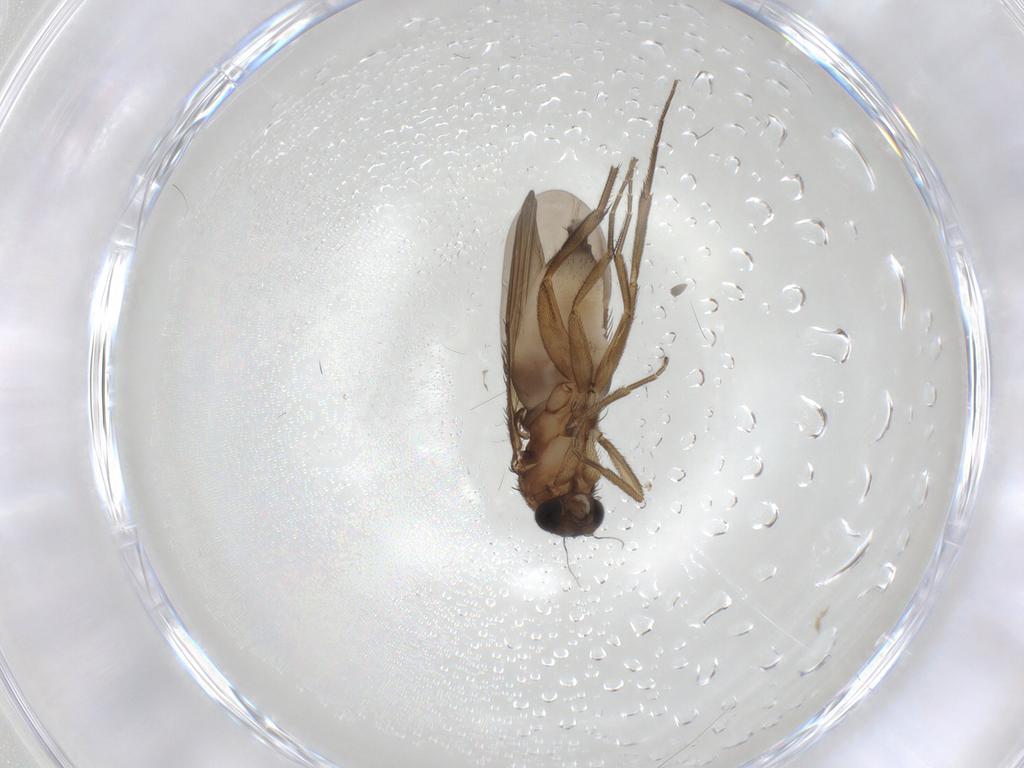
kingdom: Animalia
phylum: Arthropoda
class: Insecta
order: Diptera
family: Phoridae
